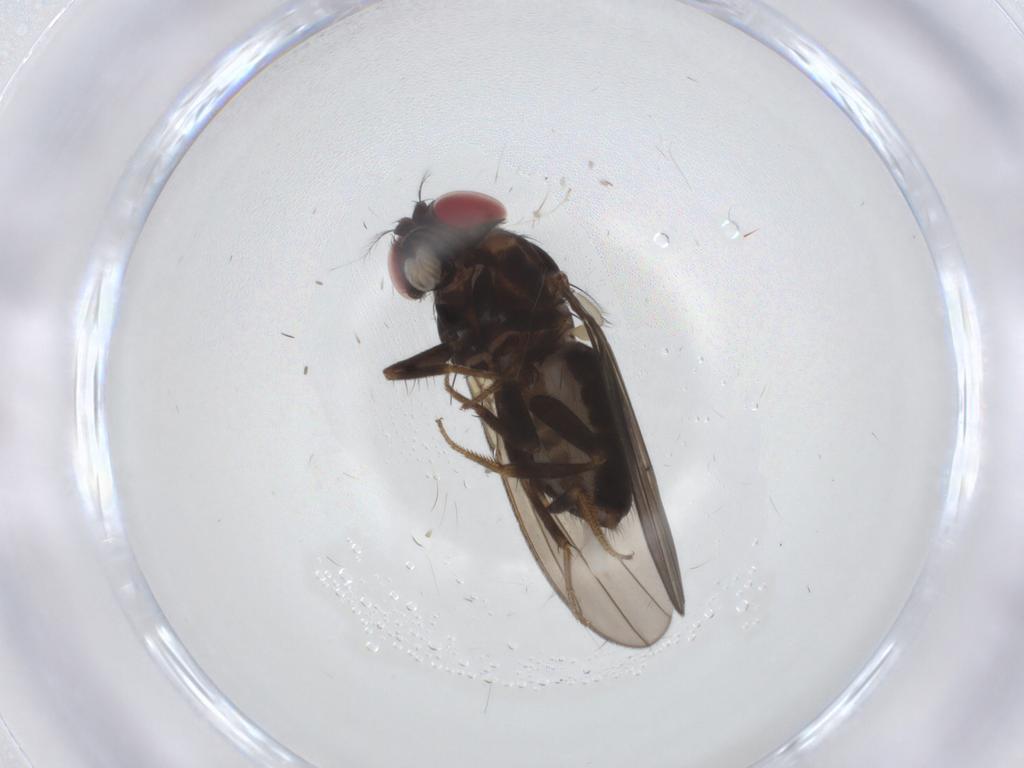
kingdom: Animalia
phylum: Arthropoda
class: Insecta
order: Diptera
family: Psychodidae
